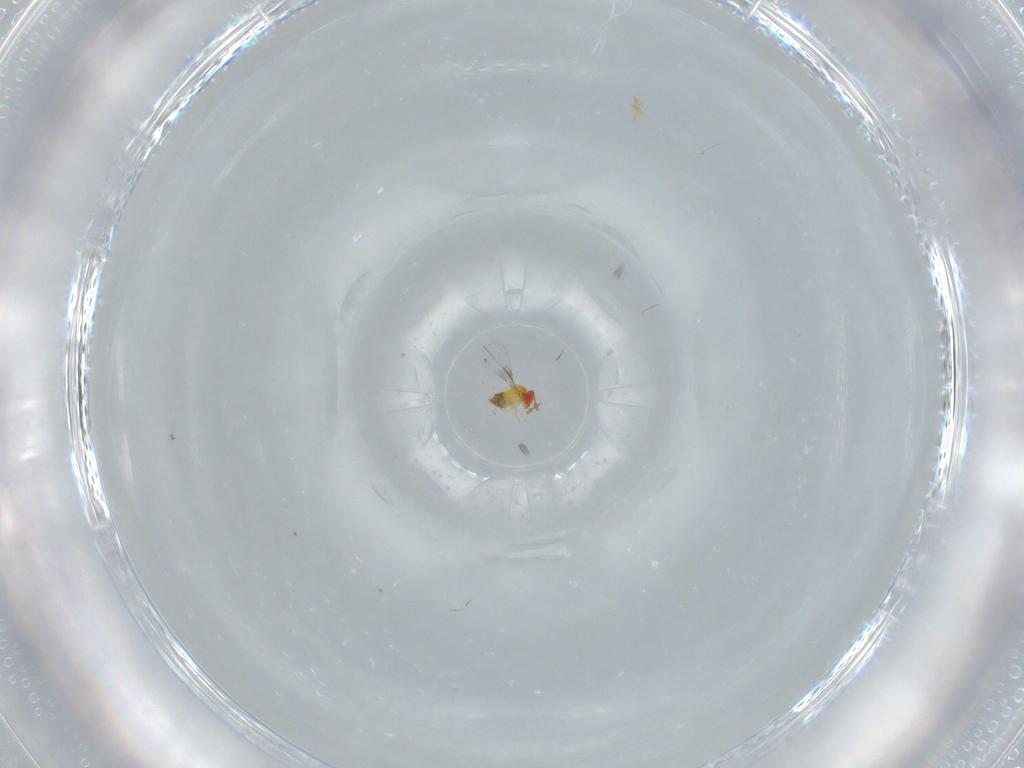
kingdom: Animalia
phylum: Arthropoda
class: Insecta
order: Hymenoptera
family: Trichogrammatidae
